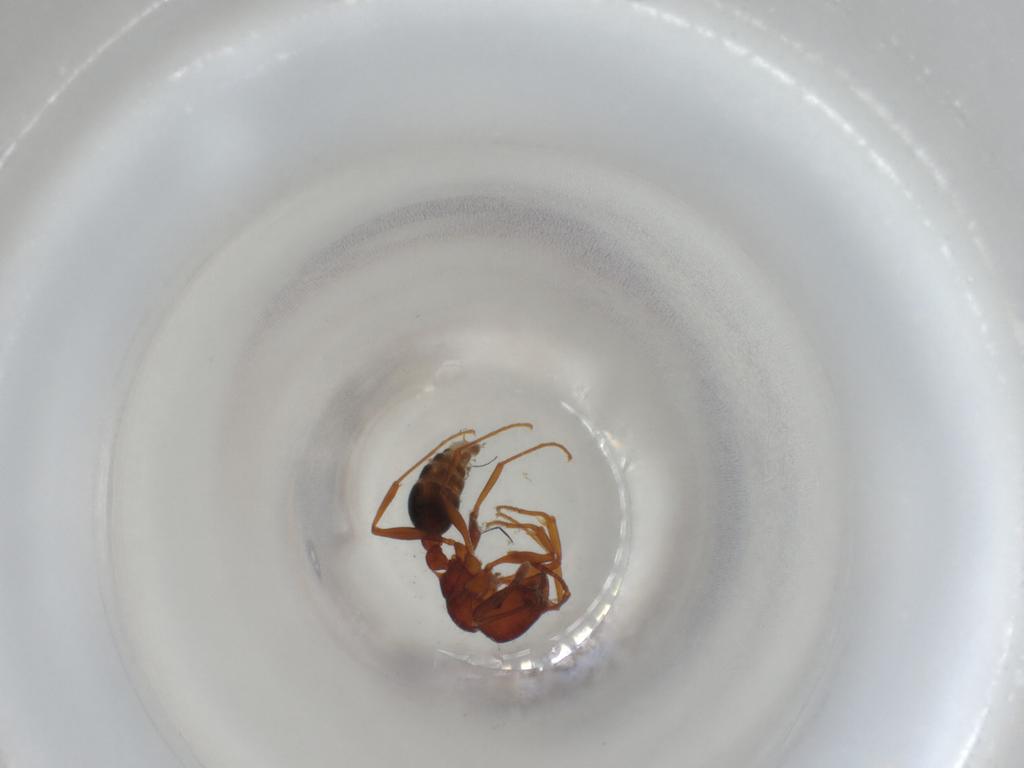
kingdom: Animalia
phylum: Arthropoda
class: Insecta
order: Hymenoptera
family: Formicidae
